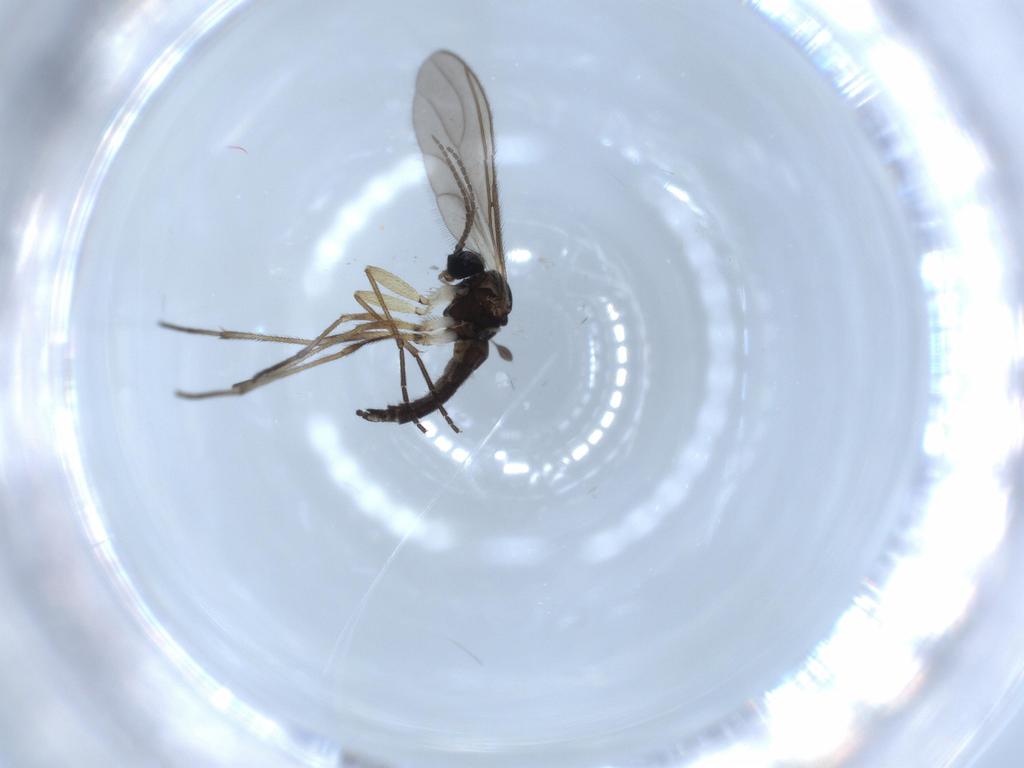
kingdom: Animalia
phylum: Arthropoda
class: Insecta
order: Diptera
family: Sciaridae
